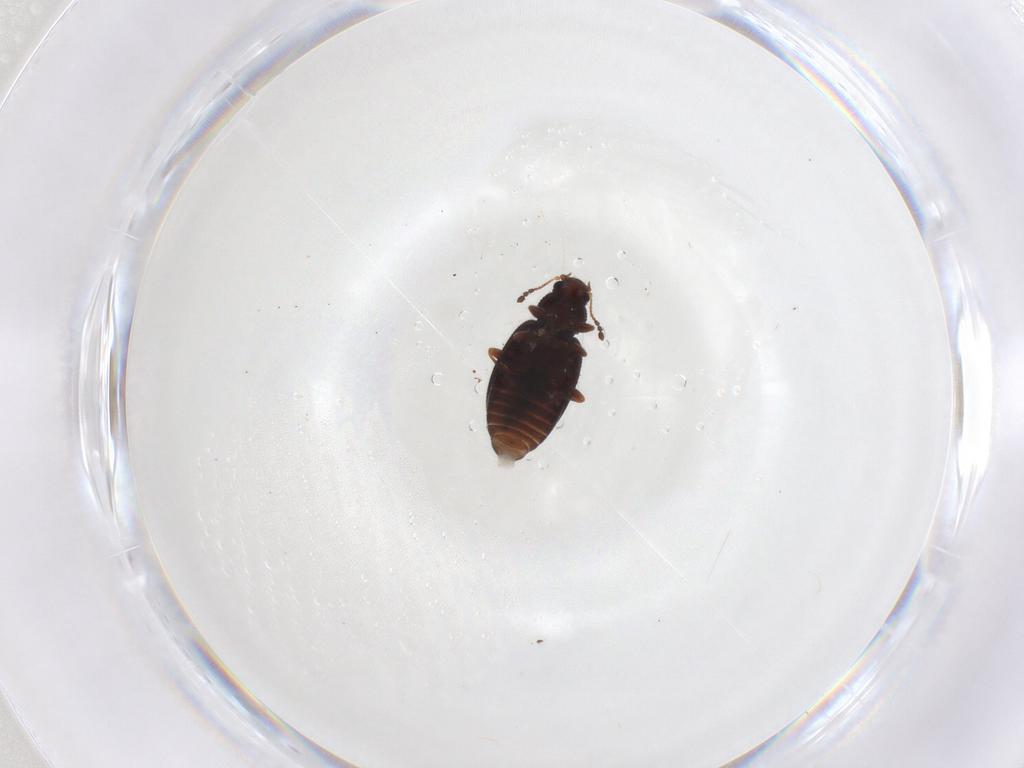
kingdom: Animalia
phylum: Arthropoda
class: Insecta
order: Coleoptera
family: Latridiidae
